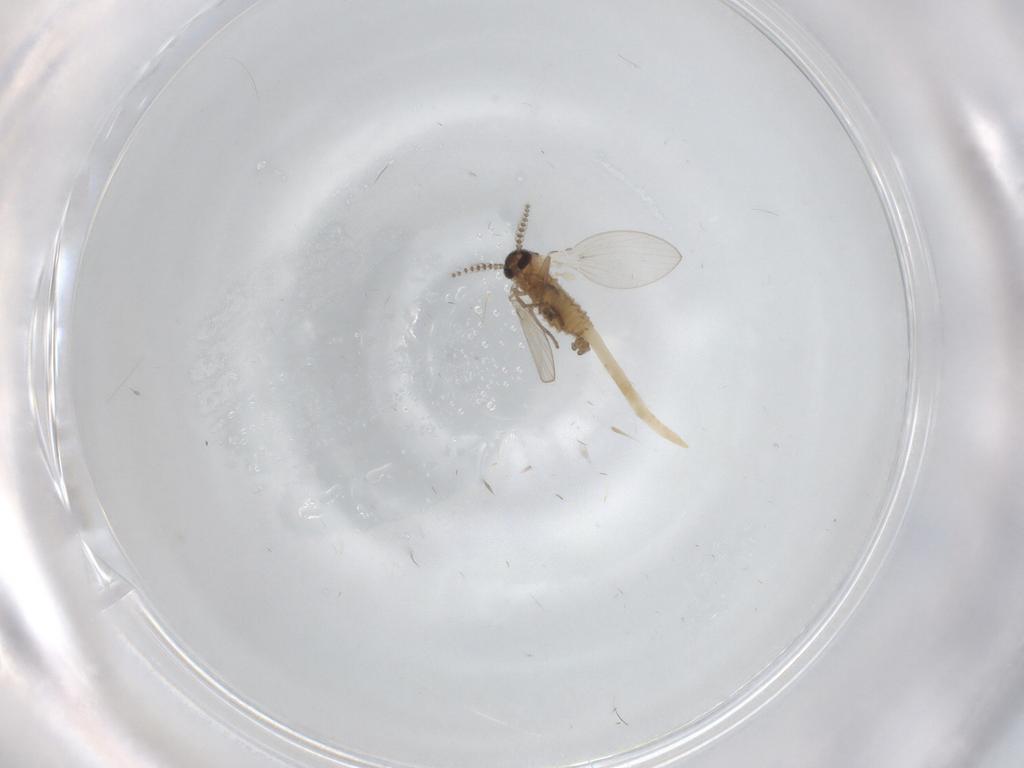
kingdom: Animalia
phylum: Arthropoda
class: Insecta
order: Diptera
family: Psychodidae
